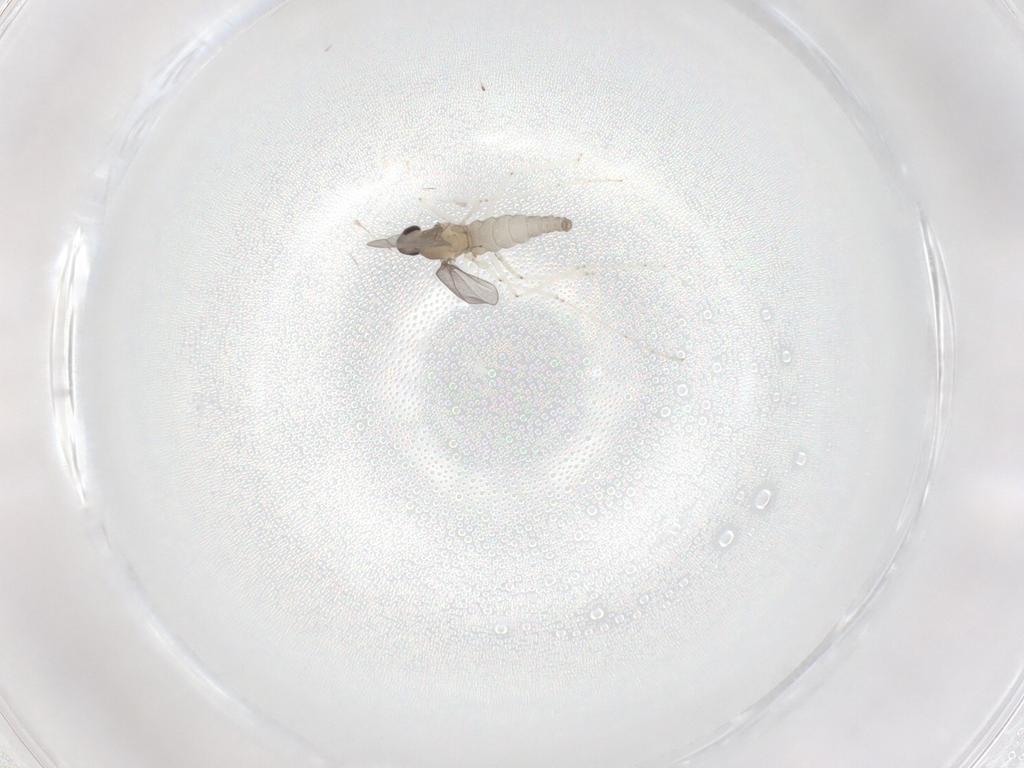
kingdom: Animalia
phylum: Arthropoda
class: Insecta
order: Diptera
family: Cecidomyiidae
